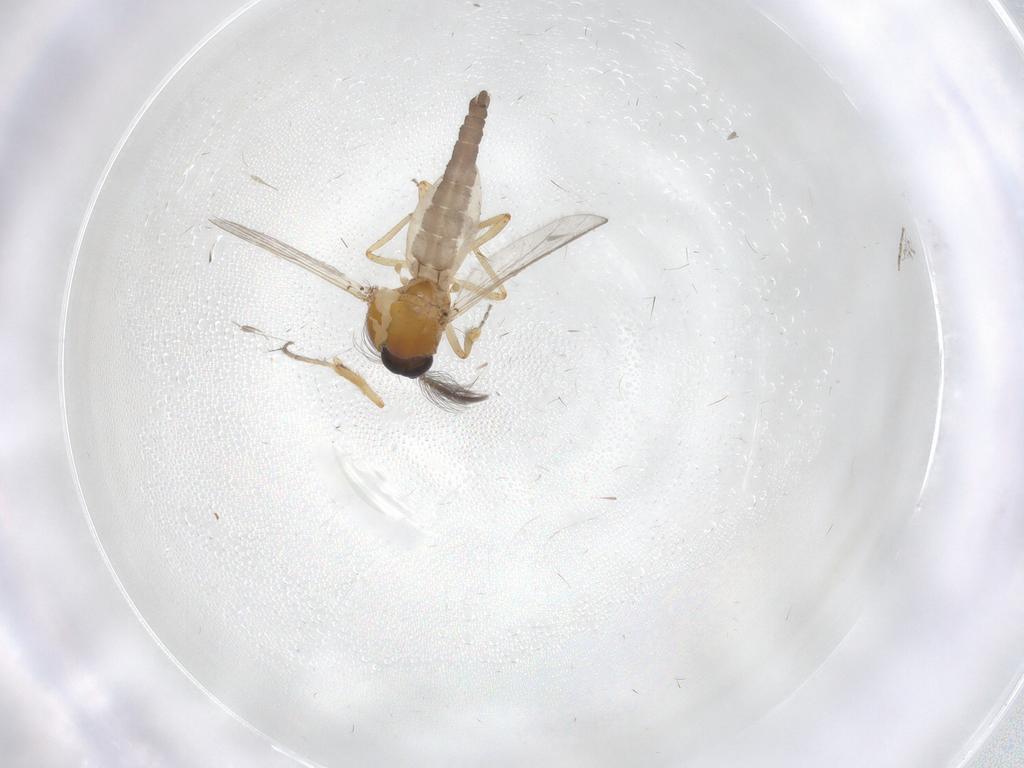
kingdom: Animalia
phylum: Arthropoda
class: Insecta
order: Diptera
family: Ceratopogonidae
